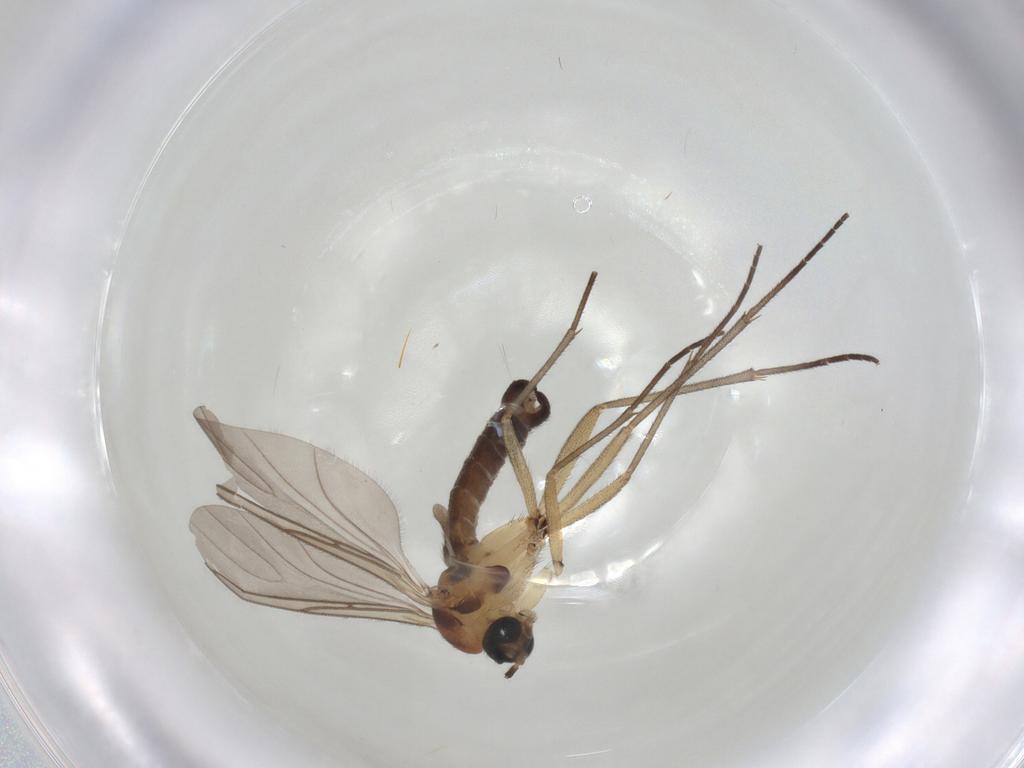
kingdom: Animalia
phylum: Arthropoda
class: Insecta
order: Diptera
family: Sciaridae
